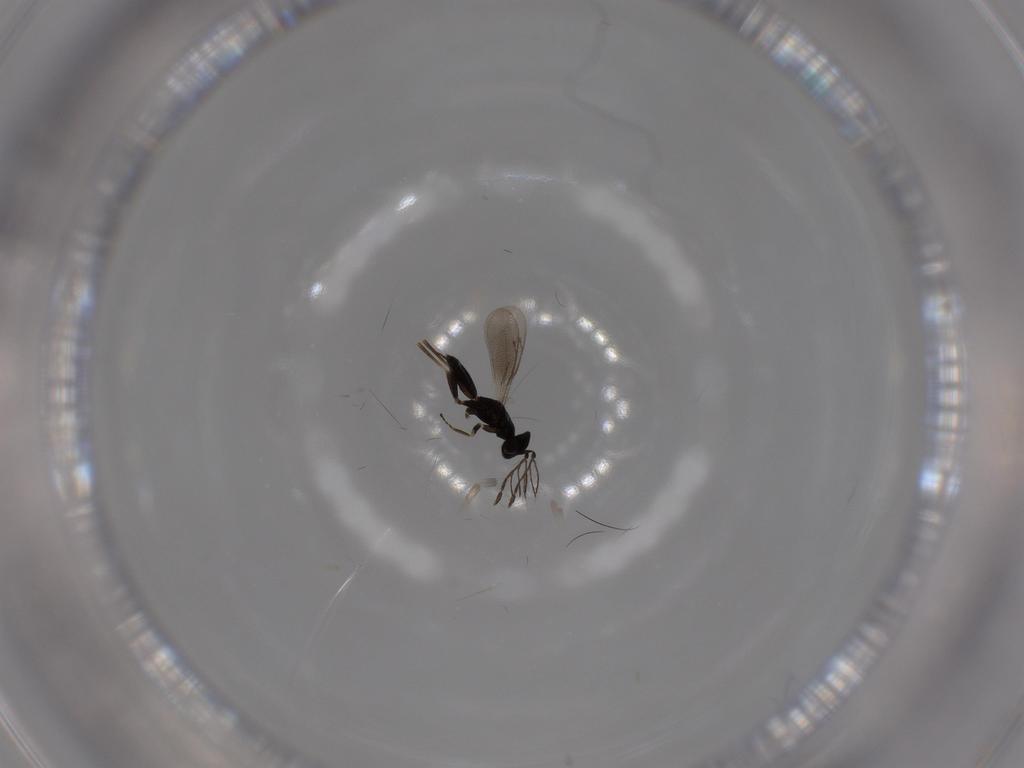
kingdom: Animalia
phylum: Arthropoda
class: Insecta
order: Hymenoptera
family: Eulophidae
